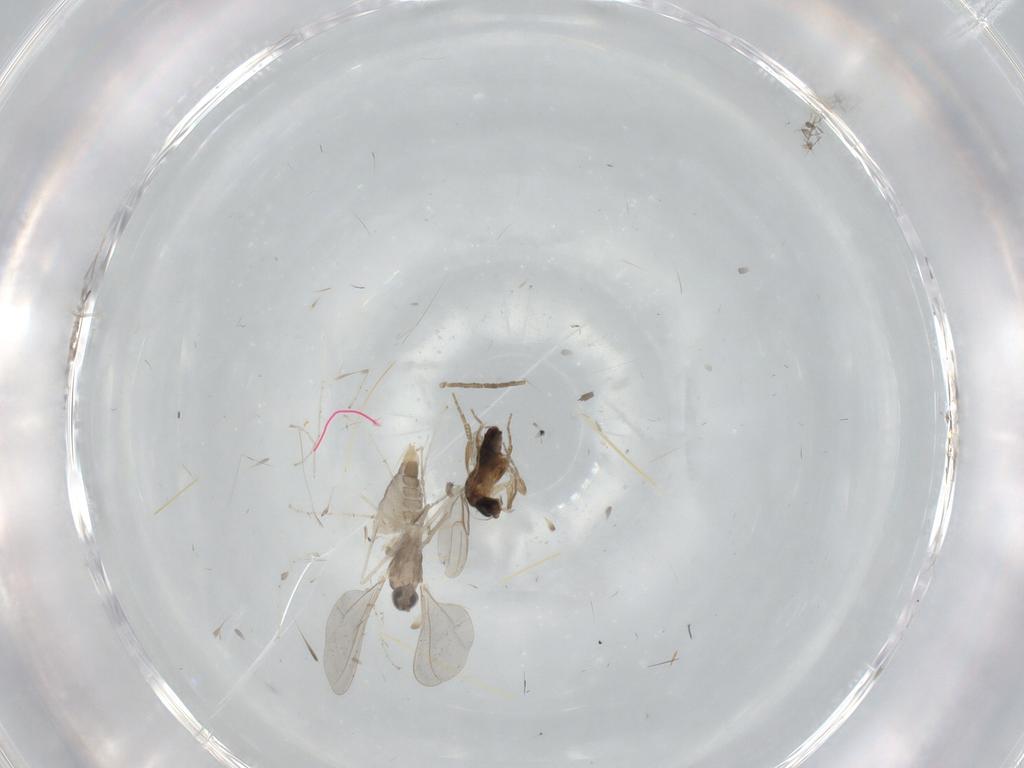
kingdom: Animalia
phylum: Arthropoda
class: Insecta
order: Diptera
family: Cecidomyiidae
